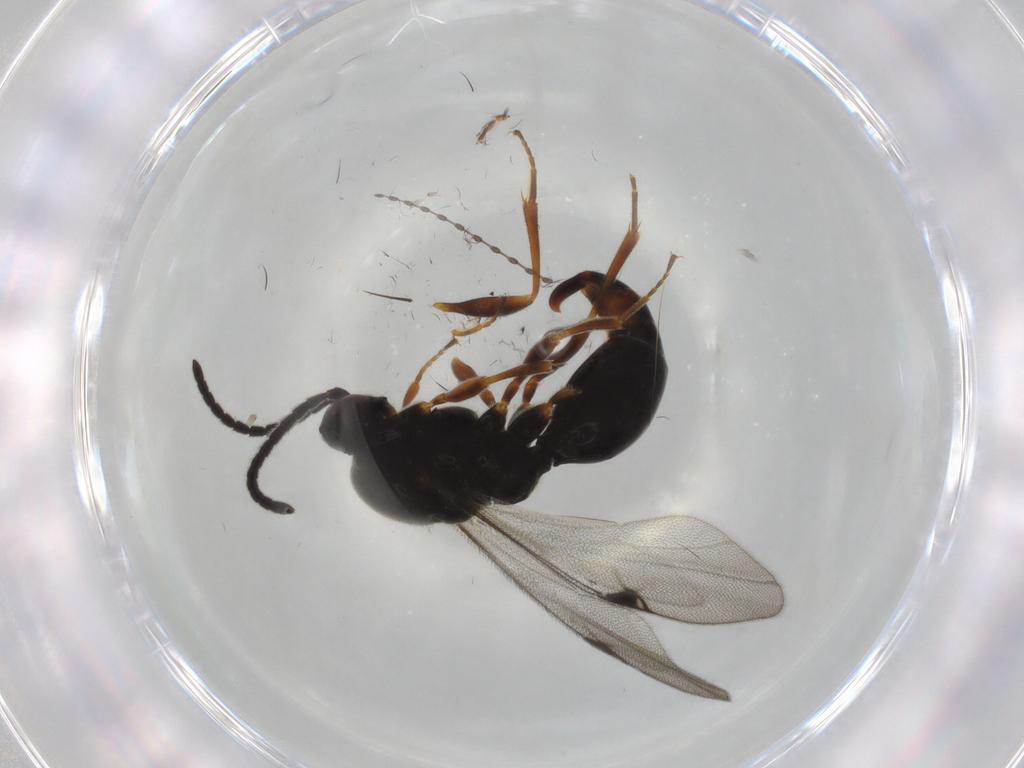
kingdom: Animalia
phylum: Arthropoda
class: Insecta
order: Hymenoptera
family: Proctotrupidae
